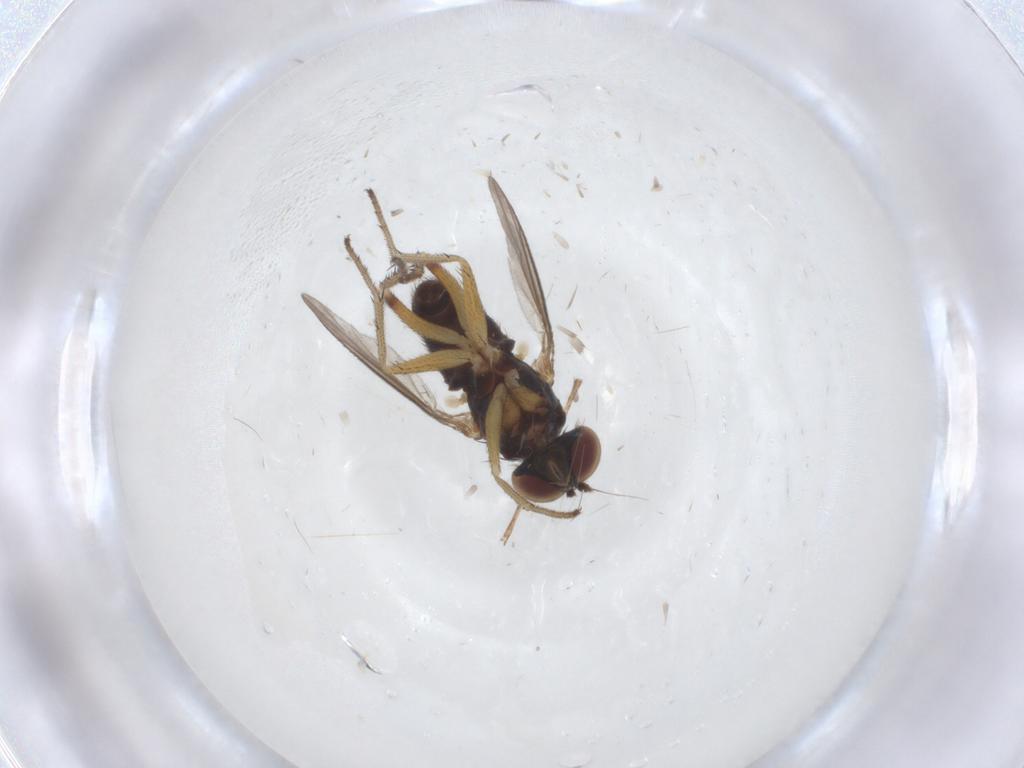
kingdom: Animalia
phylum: Arthropoda
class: Insecta
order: Diptera
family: Culicidae
